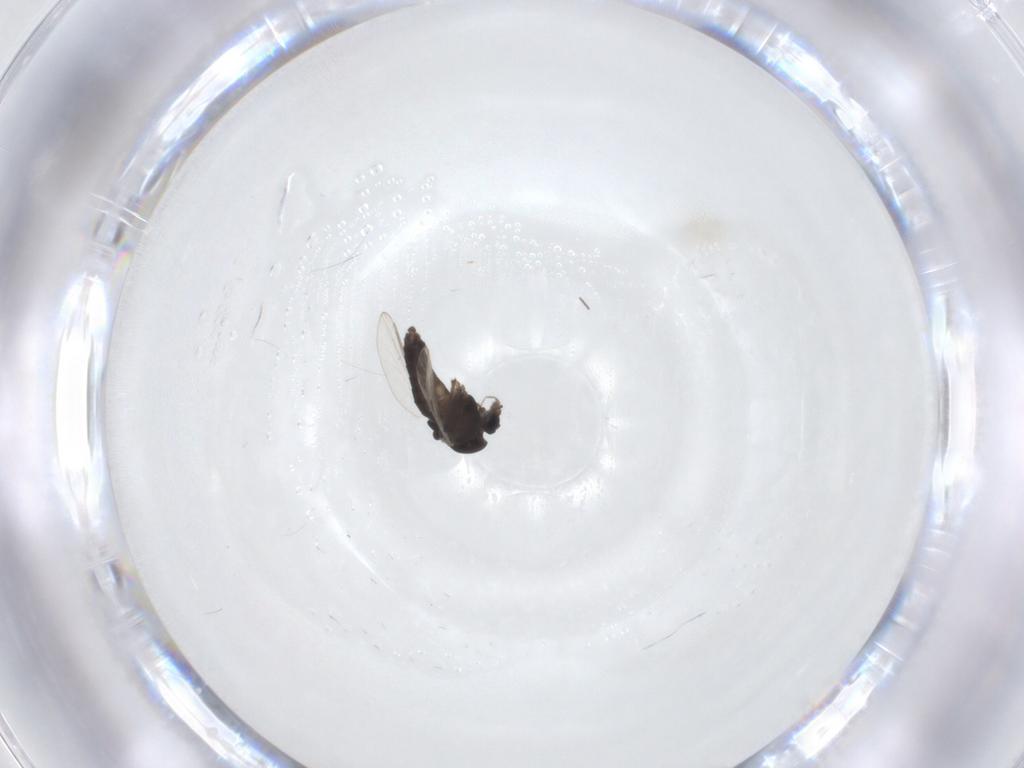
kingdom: Animalia
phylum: Arthropoda
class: Insecta
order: Diptera
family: Chironomidae
